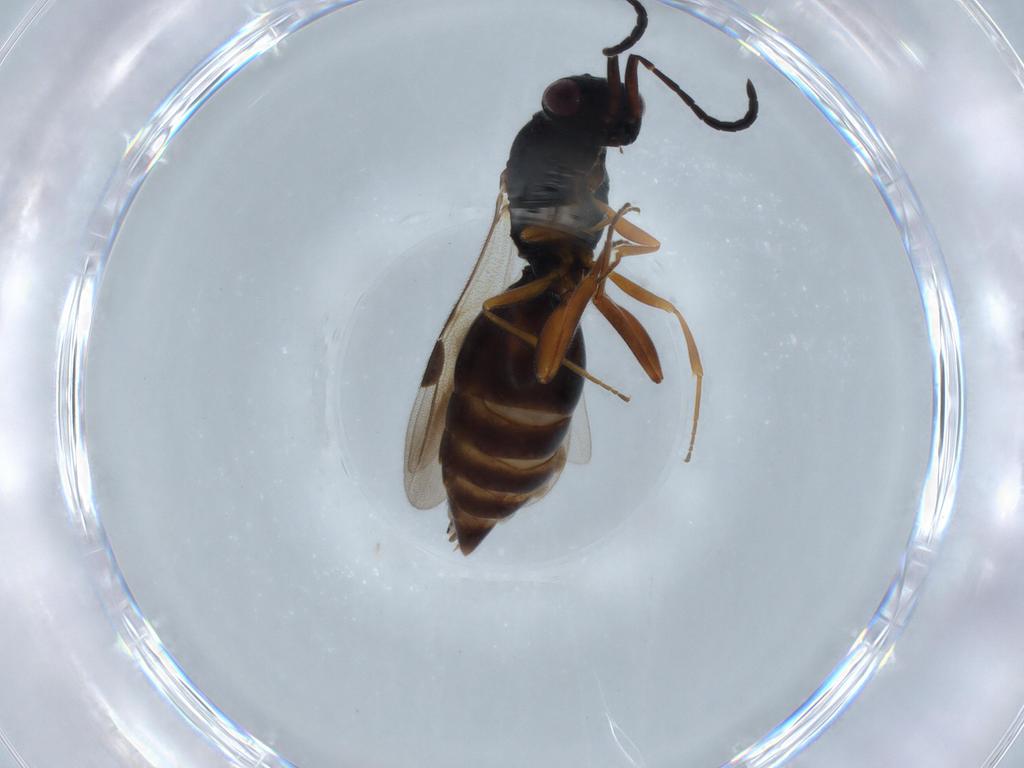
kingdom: Animalia
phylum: Arthropoda
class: Insecta
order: Hymenoptera
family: Megaspilidae
